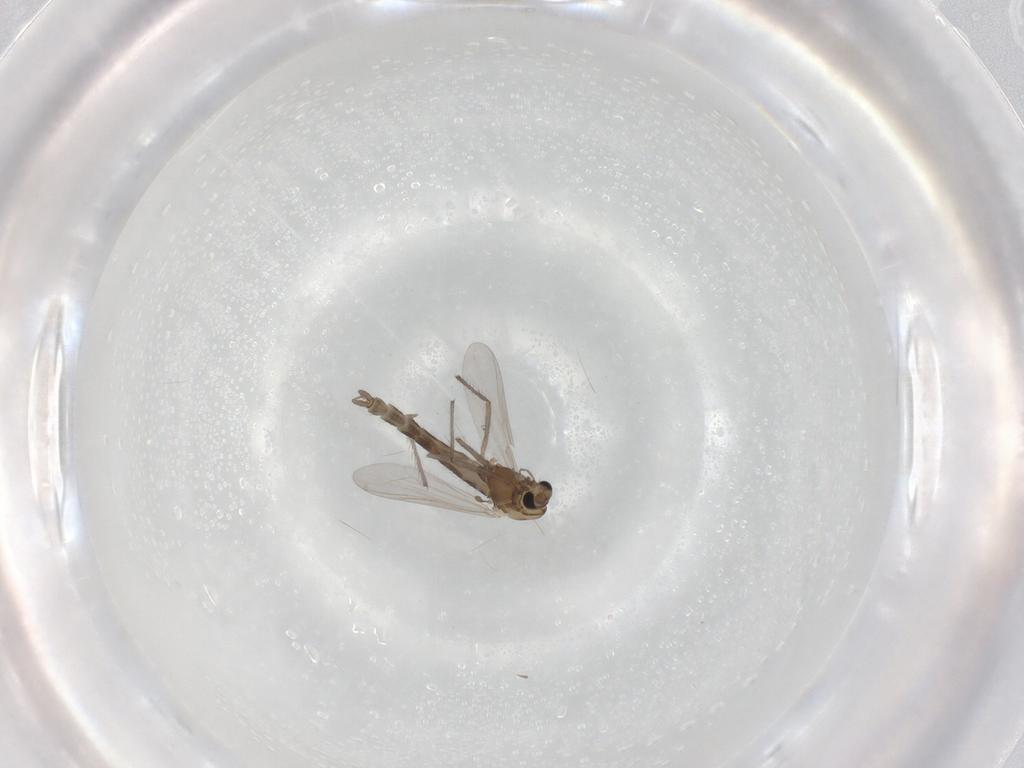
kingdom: Animalia
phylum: Arthropoda
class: Insecta
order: Diptera
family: Chironomidae
